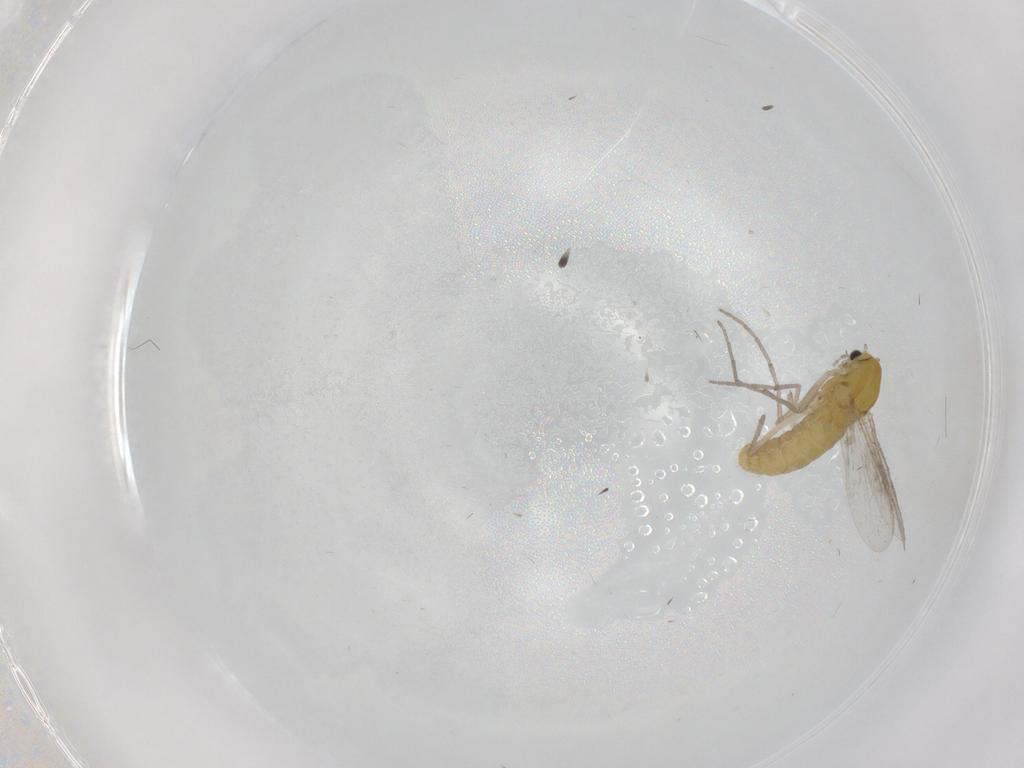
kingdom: Animalia
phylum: Arthropoda
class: Insecta
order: Diptera
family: Chironomidae
